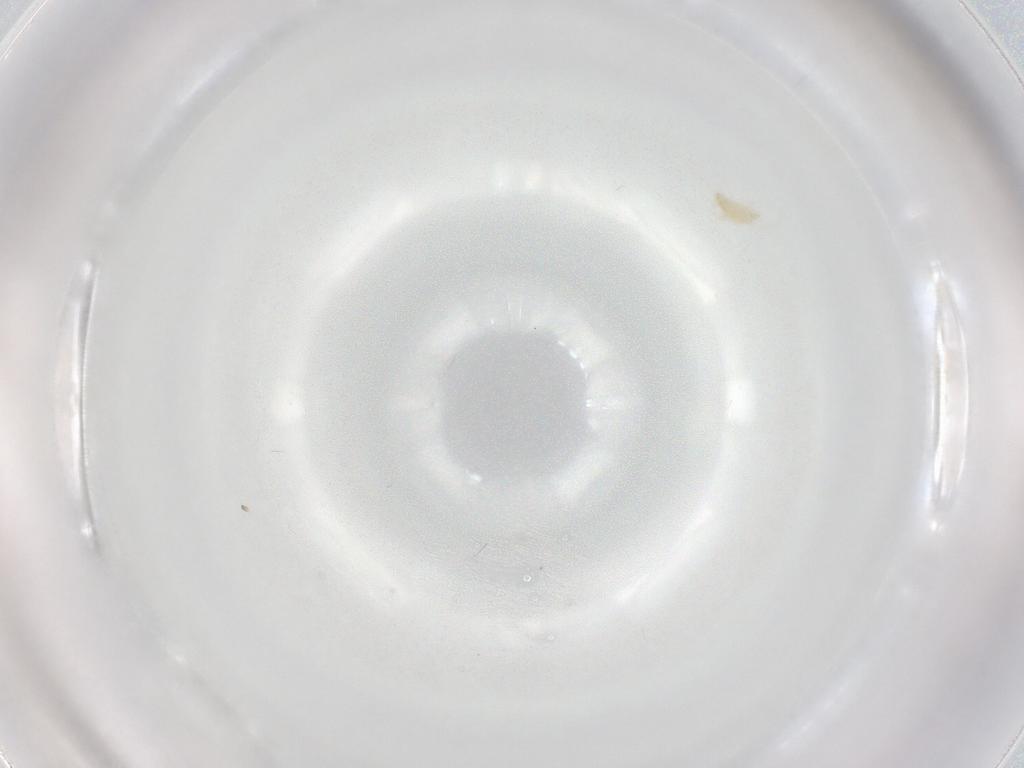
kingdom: Animalia
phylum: Arthropoda
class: Arachnida
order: Trombidiformes
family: Eupodidae
